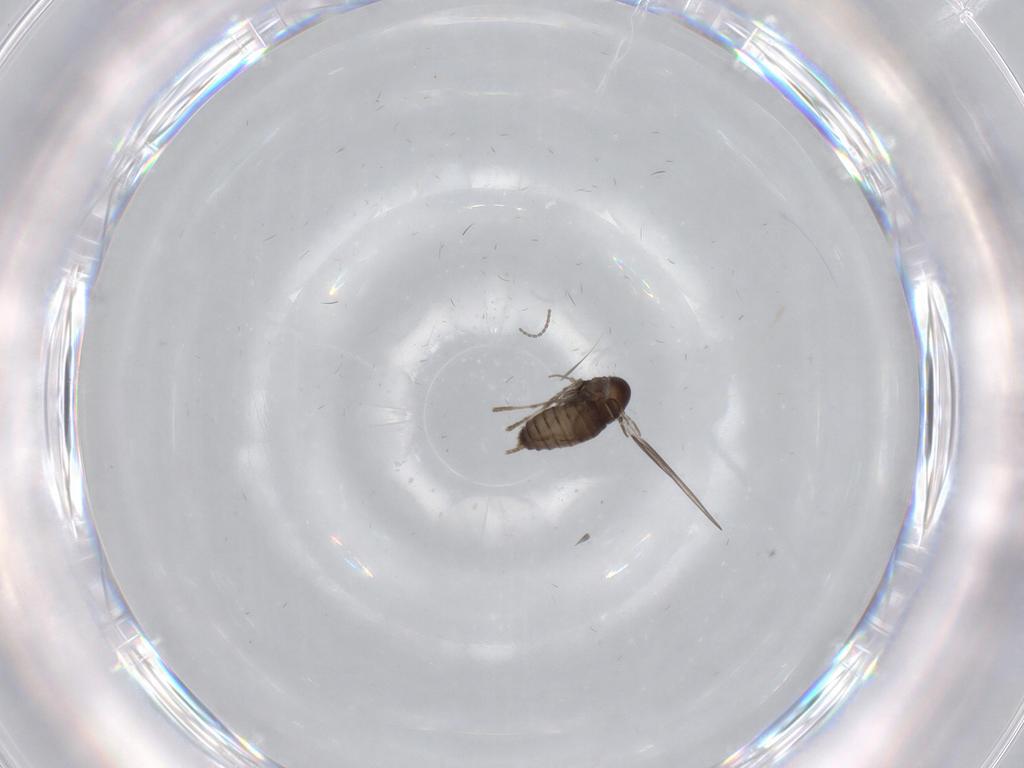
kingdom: Animalia
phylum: Arthropoda
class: Insecta
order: Diptera
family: Psychodidae
